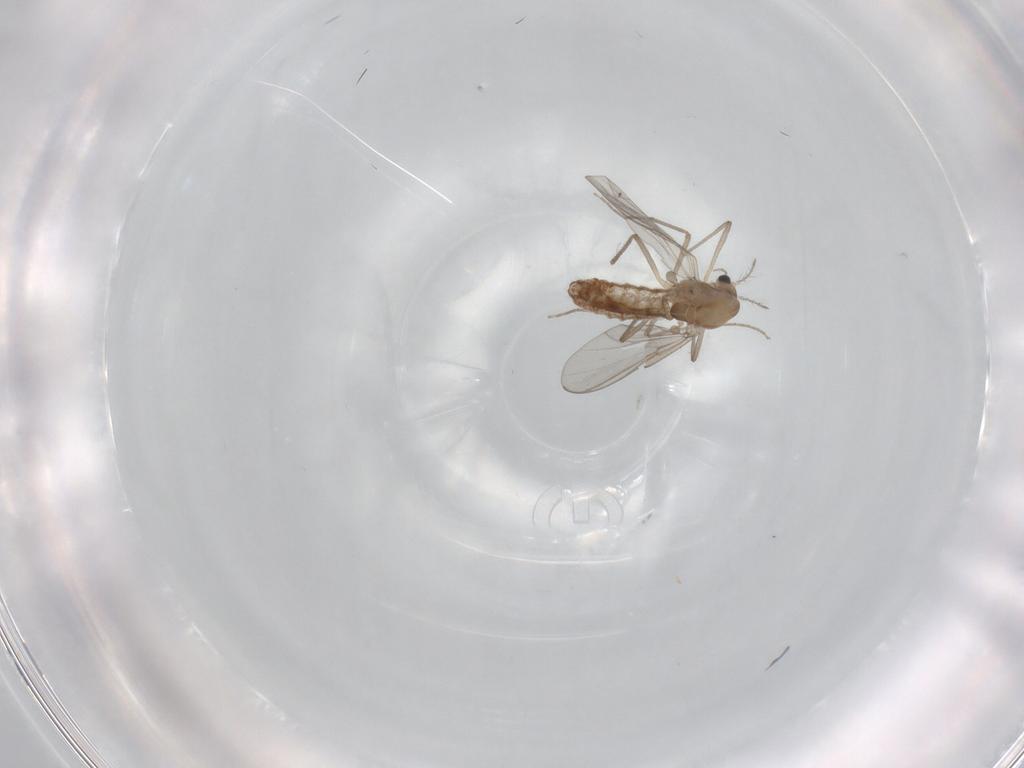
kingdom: Animalia
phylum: Arthropoda
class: Insecta
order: Diptera
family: Chironomidae
